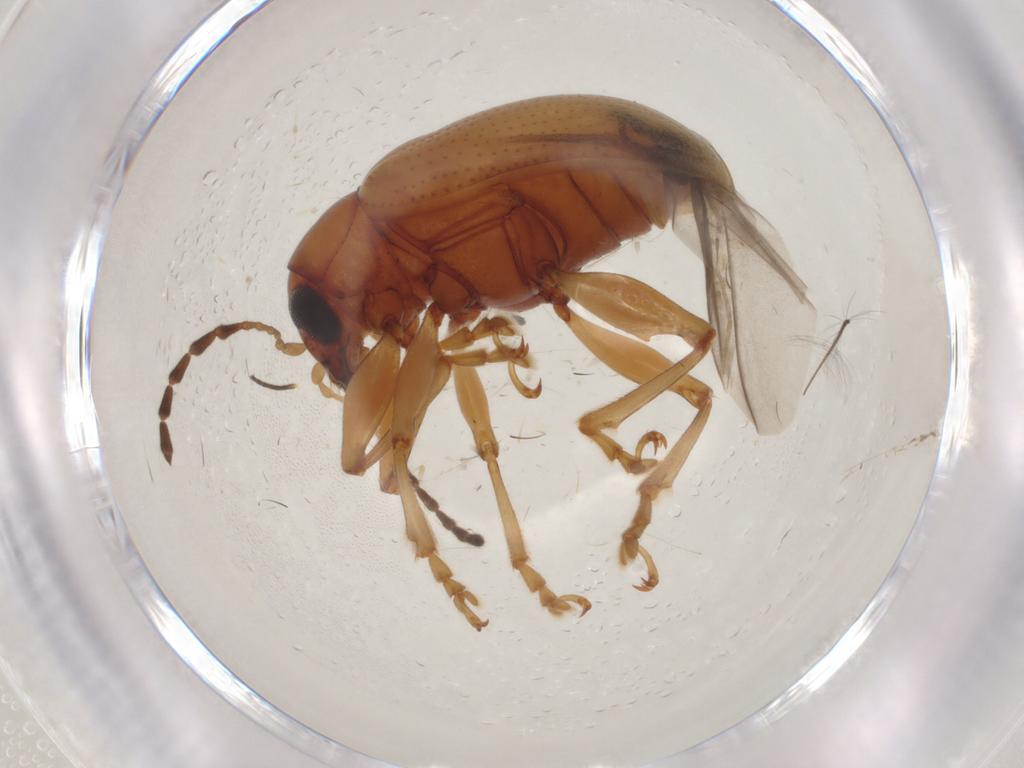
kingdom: Animalia
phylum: Arthropoda
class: Insecta
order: Coleoptera
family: Chrysomelidae
